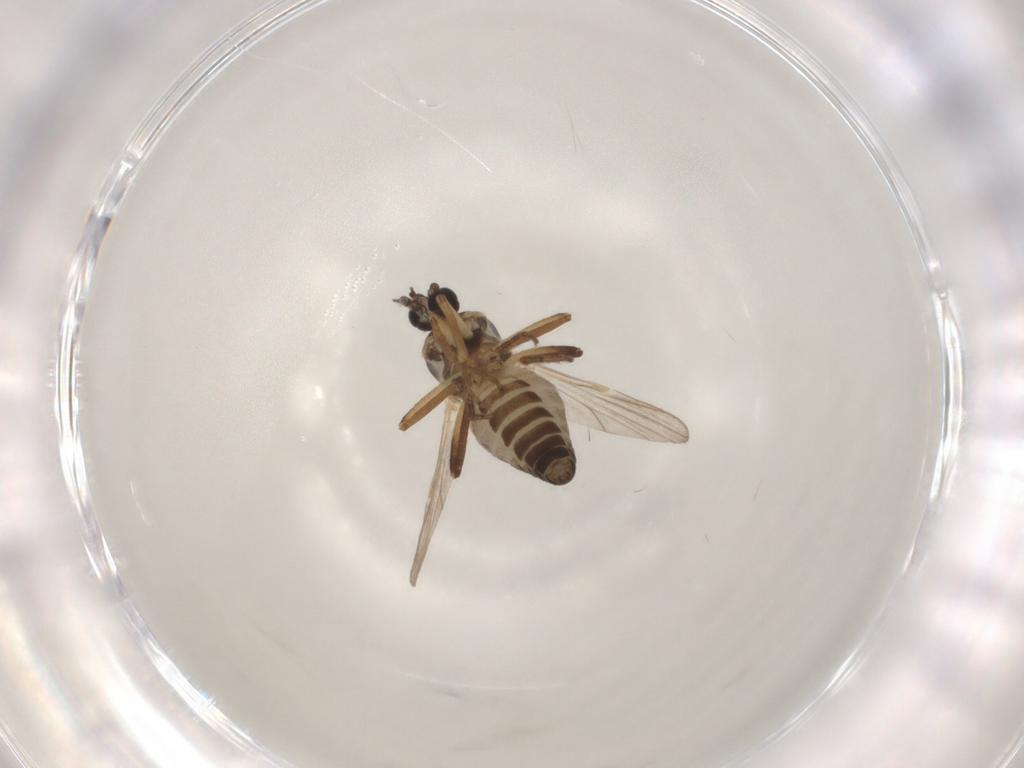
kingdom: Animalia
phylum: Arthropoda
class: Insecta
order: Diptera
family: Ceratopogonidae
